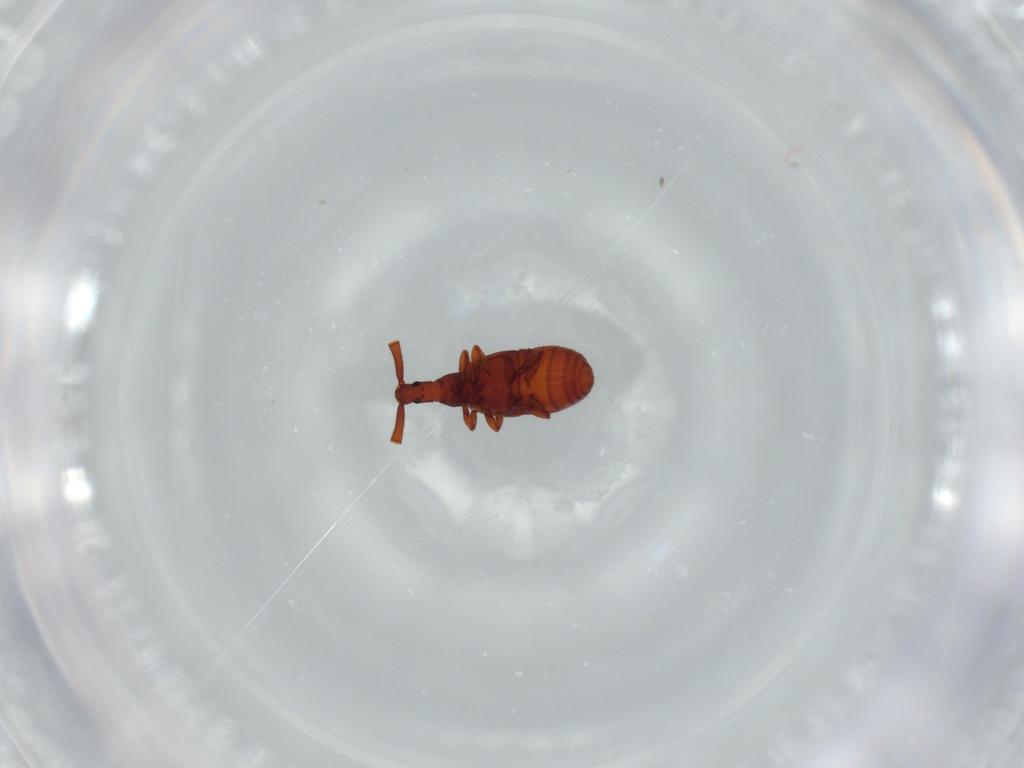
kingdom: Animalia
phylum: Arthropoda
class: Insecta
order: Coleoptera
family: Staphylinidae
